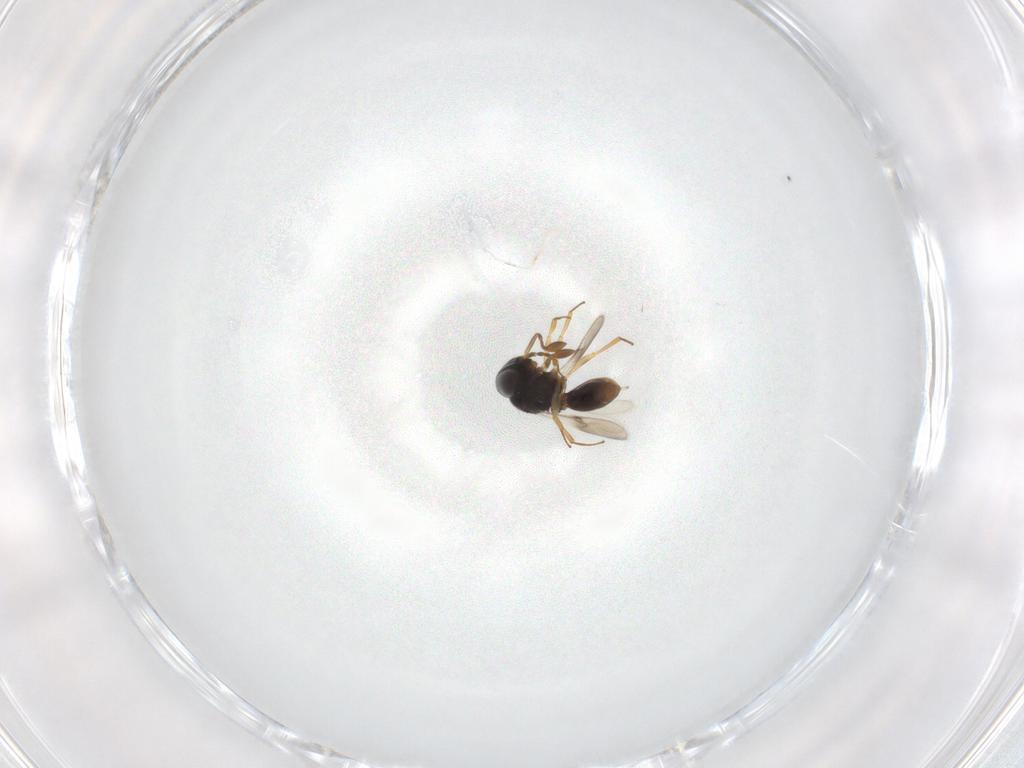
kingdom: Animalia
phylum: Arthropoda
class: Insecta
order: Hymenoptera
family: Scelionidae
